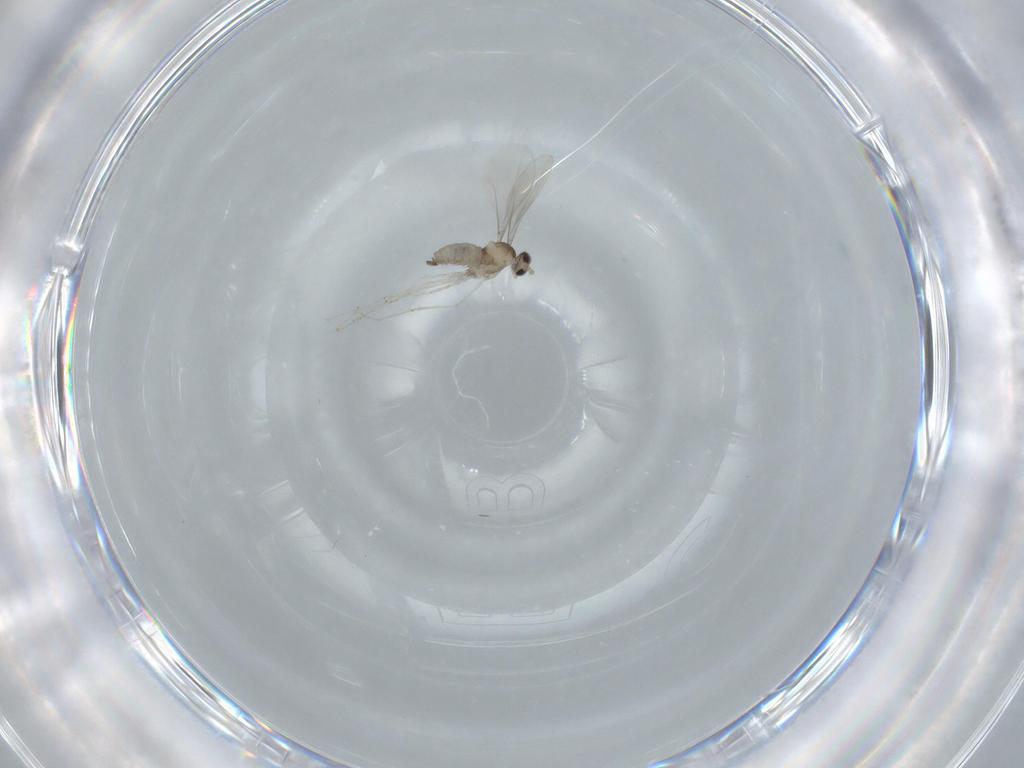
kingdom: Animalia
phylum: Arthropoda
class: Insecta
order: Diptera
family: Cecidomyiidae
